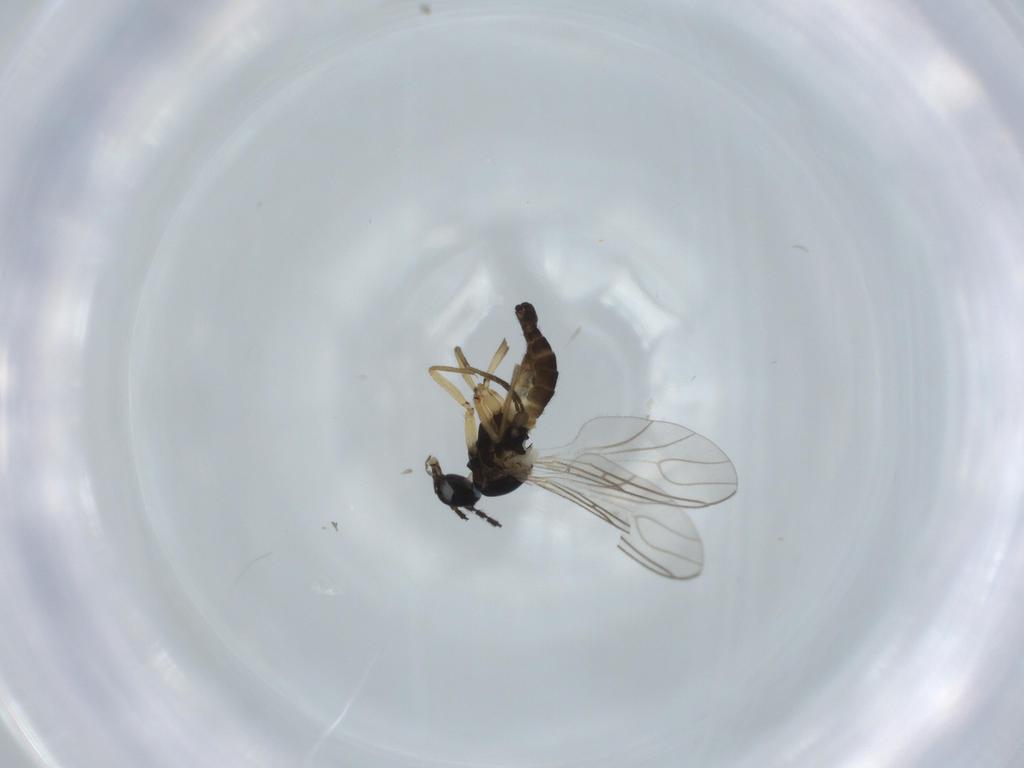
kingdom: Animalia
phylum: Arthropoda
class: Insecta
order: Diptera
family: Sciaridae
